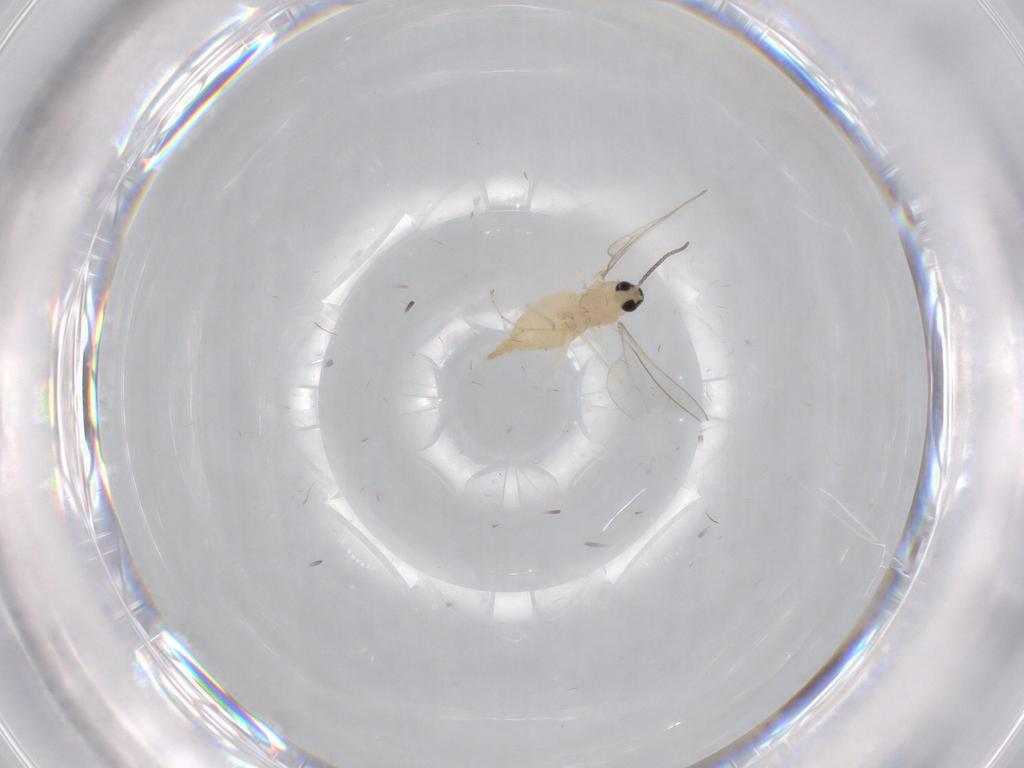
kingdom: Animalia
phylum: Arthropoda
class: Insecta
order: Diptera
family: Cecidomyiidae
